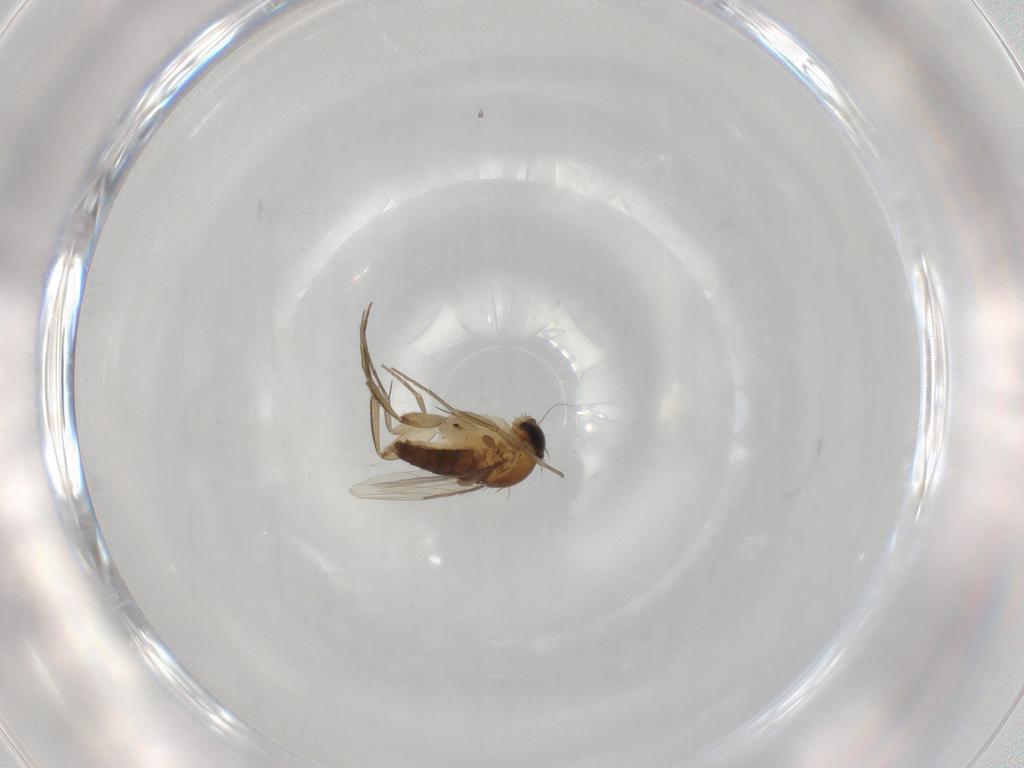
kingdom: Animalia
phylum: Arthropoda
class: Insecta
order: Diptera
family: Phoridae
